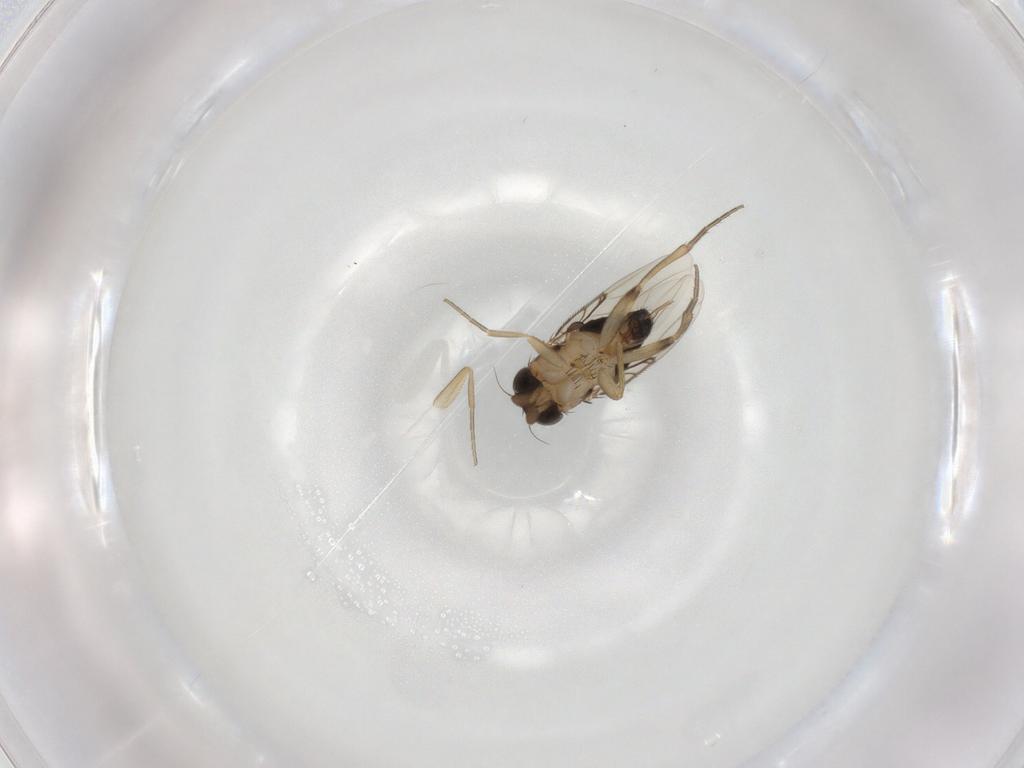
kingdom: Animalia
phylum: Arthropoda
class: Insecta
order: Diptera
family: Phoridae
